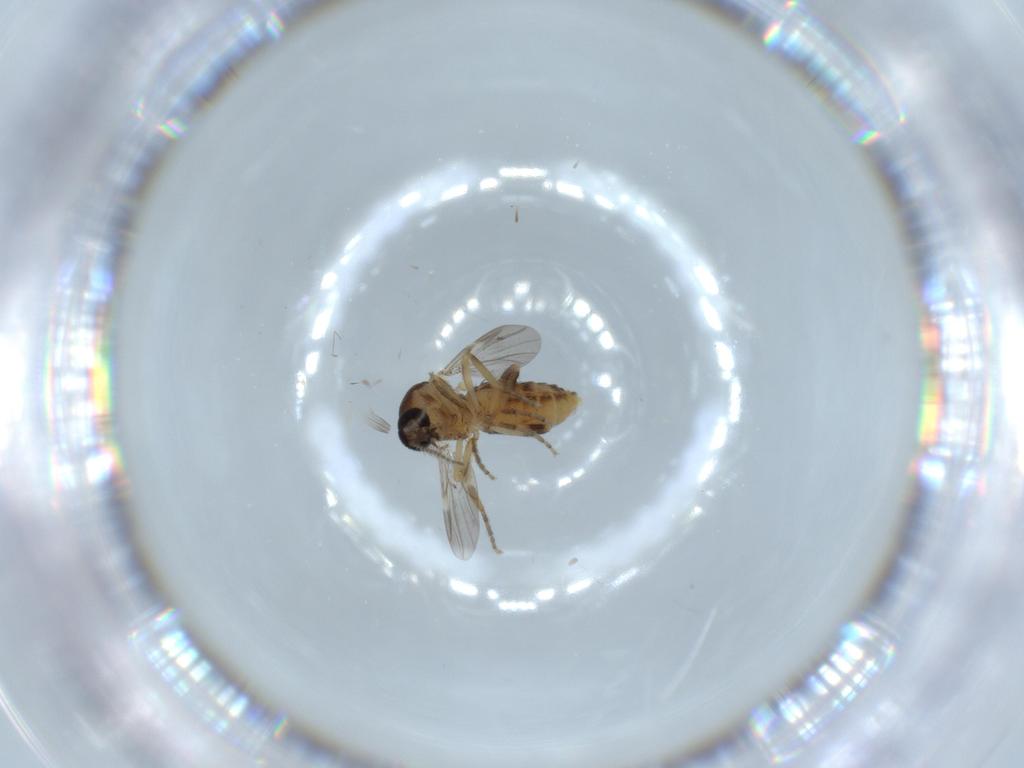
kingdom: Animalia
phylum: Arthropoda
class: Insecta
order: Diptera
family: Ceratopogonidae
